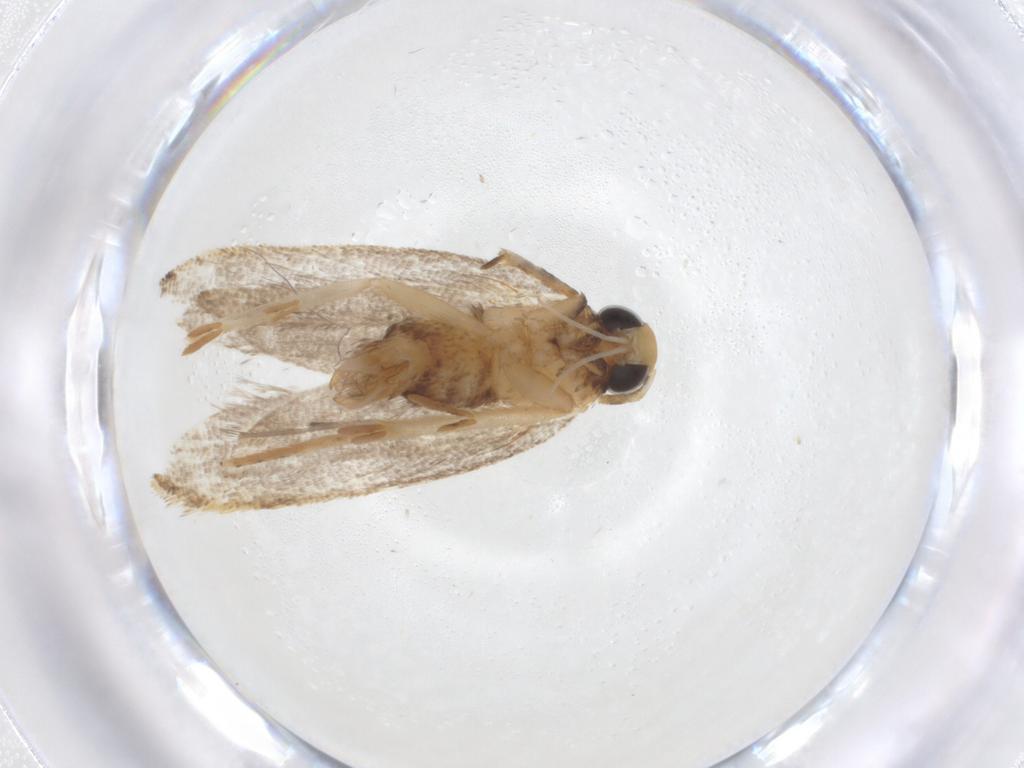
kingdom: Animalia
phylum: Arthropoda
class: Insecta
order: Lepidoptera
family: Oecophoridae
